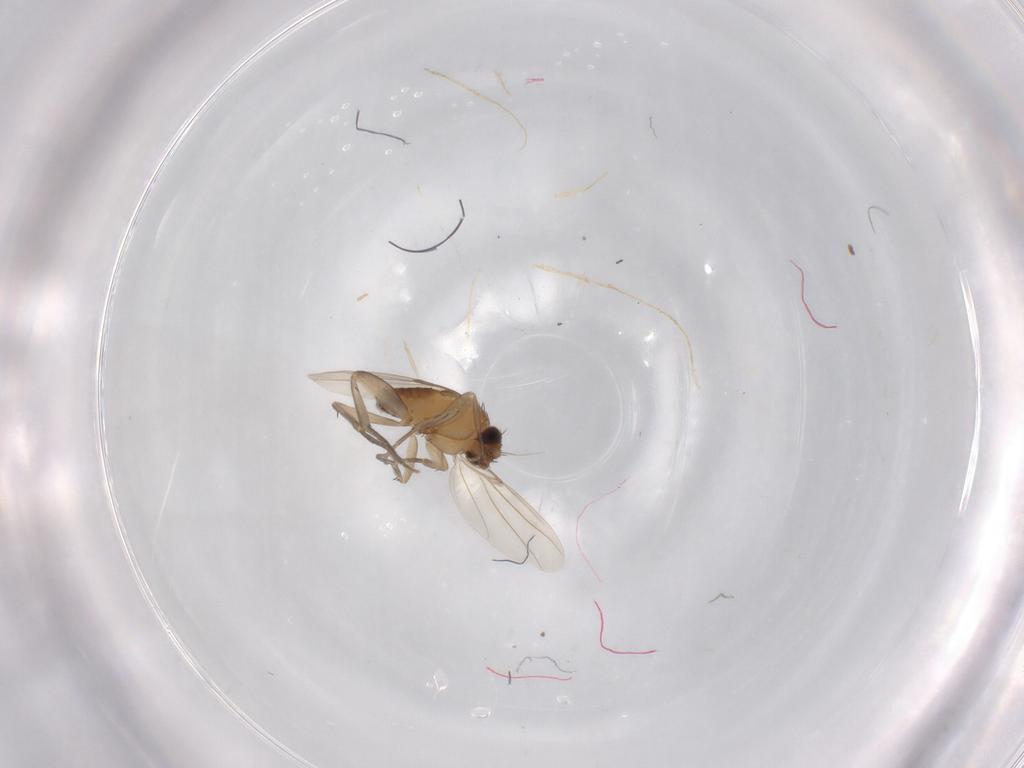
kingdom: Animalia
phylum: Arthropoda
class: Insecta
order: Diptera
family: Phoridae
